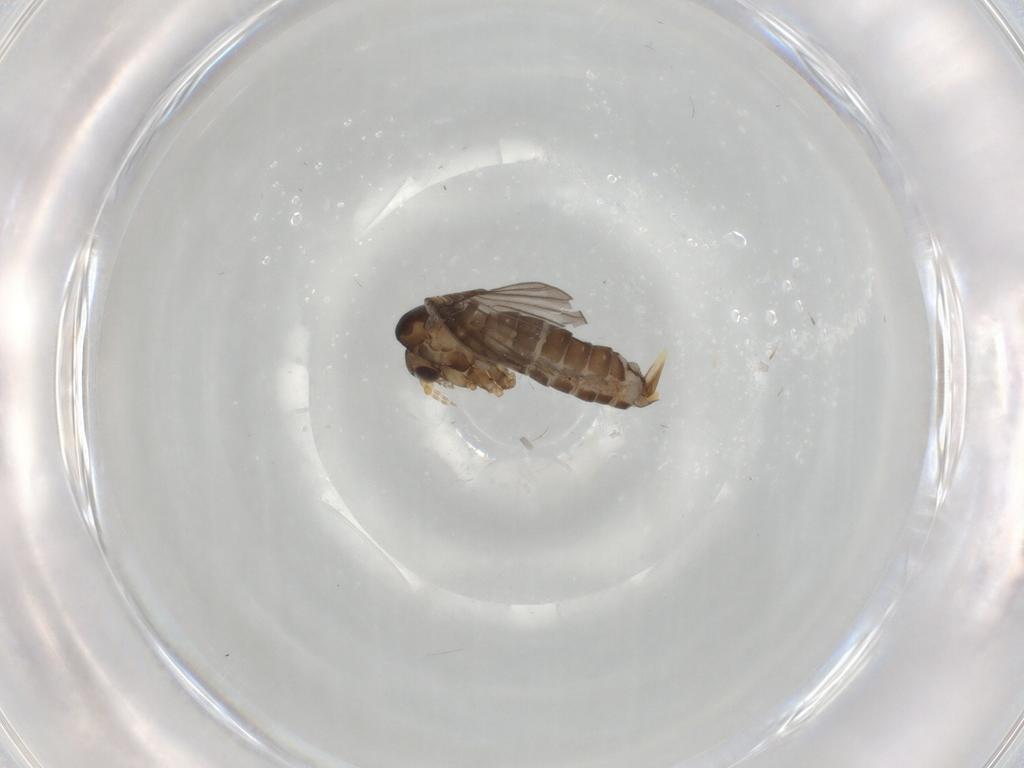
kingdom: Animalia
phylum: Arthropoda
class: Insecta
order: Diptera
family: Psychodidae
